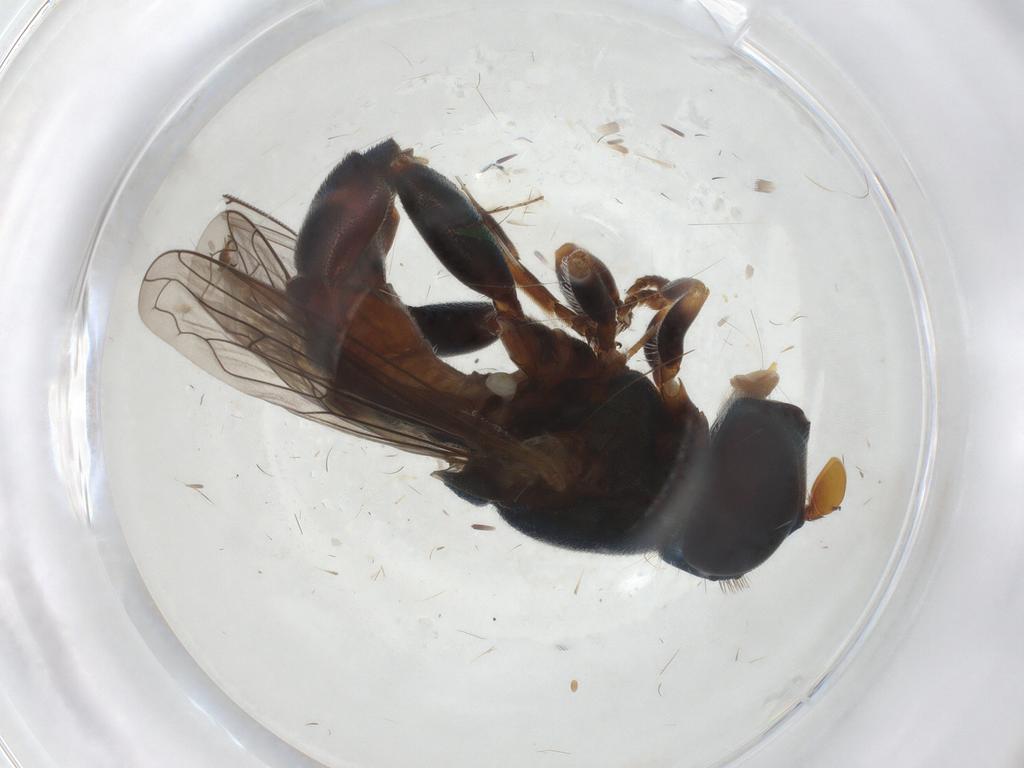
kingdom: Animalia
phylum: Arthropoda
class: Insecta
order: Diptera
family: Syrphidae
